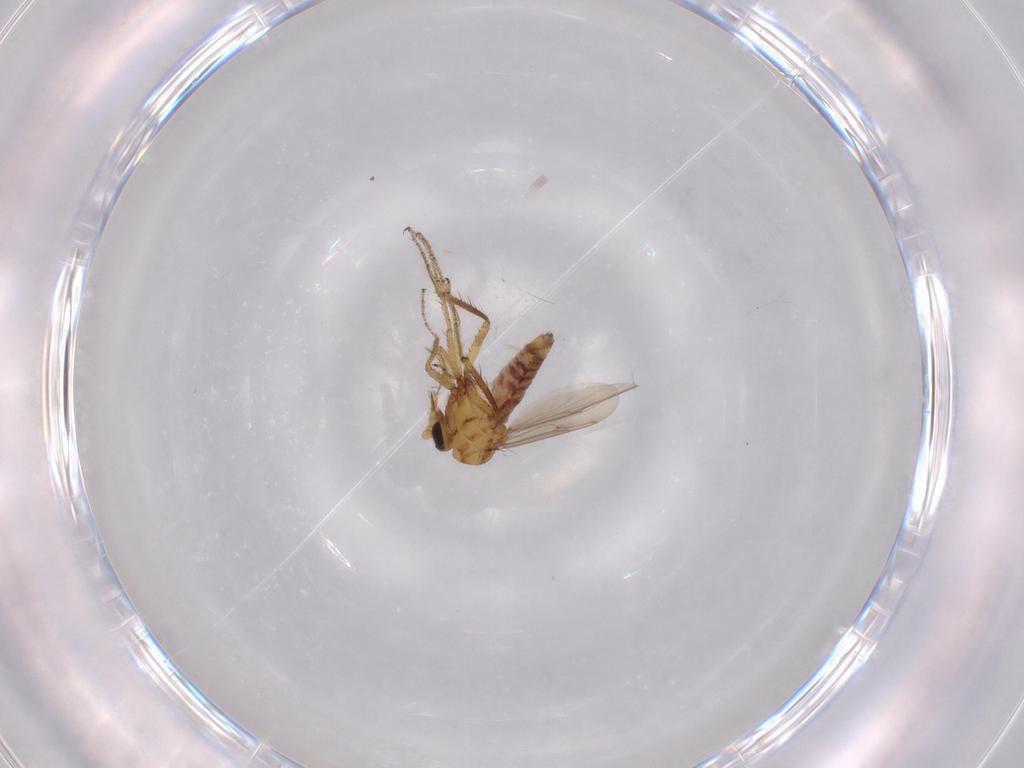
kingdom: Animalia
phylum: Arthropoda
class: Insecta
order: Diptera
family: Ceratopogonidae
